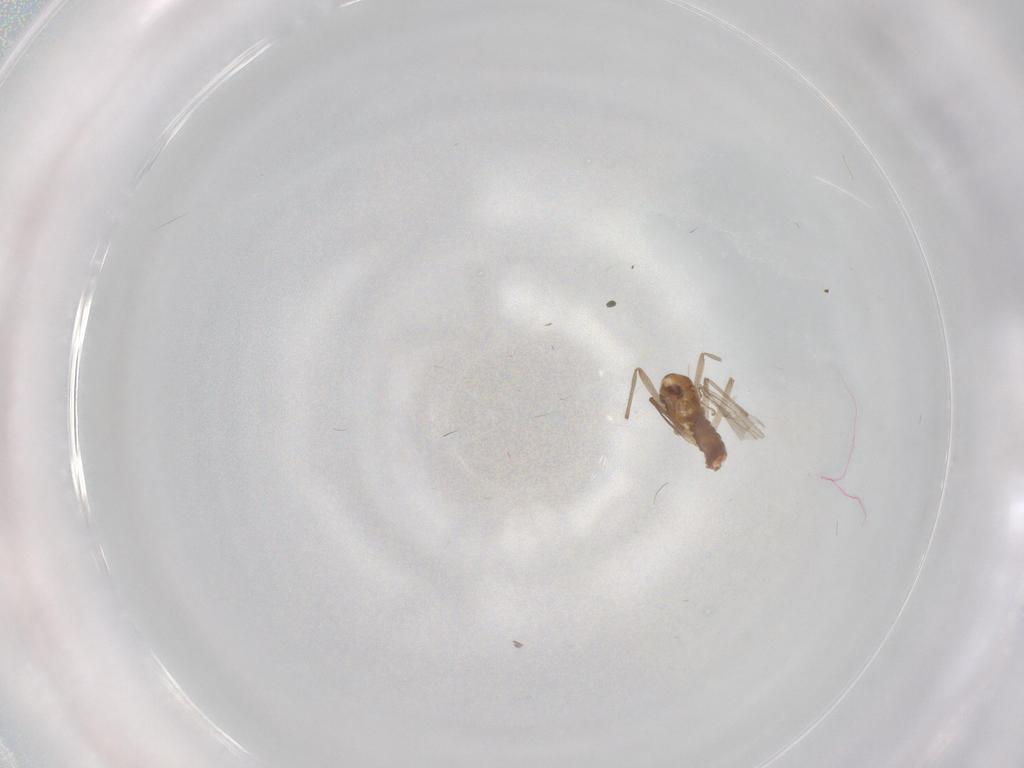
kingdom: Animalia
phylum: Arthropoda
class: Insecta
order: Diptera
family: Chironomidae
